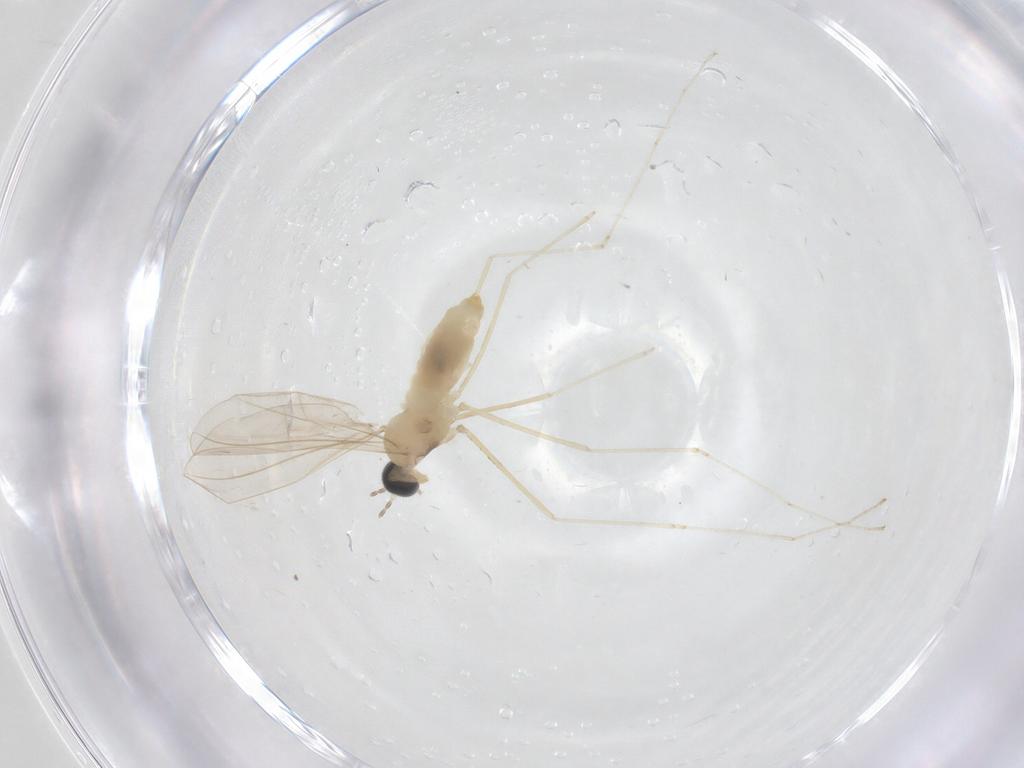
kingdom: Animalia
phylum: Arthropoda
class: Insecta
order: Diptera
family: Cecidomyiidae
